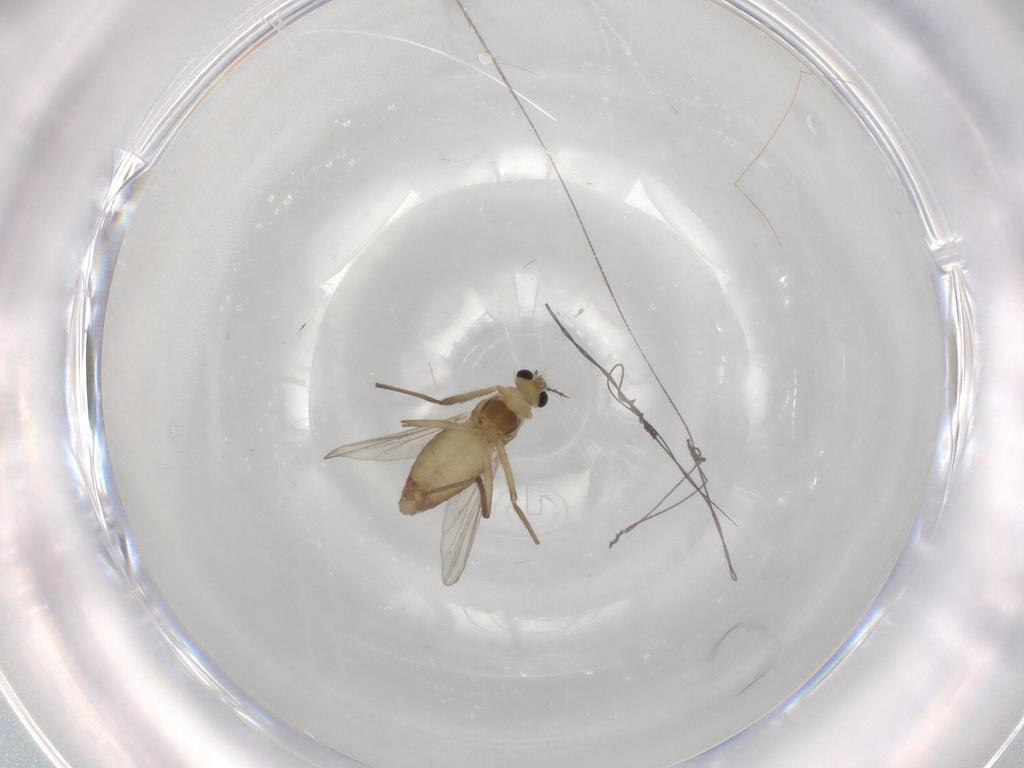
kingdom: Animalia
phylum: Arthropoda
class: Insecta
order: Diptera
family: Chironomidae
